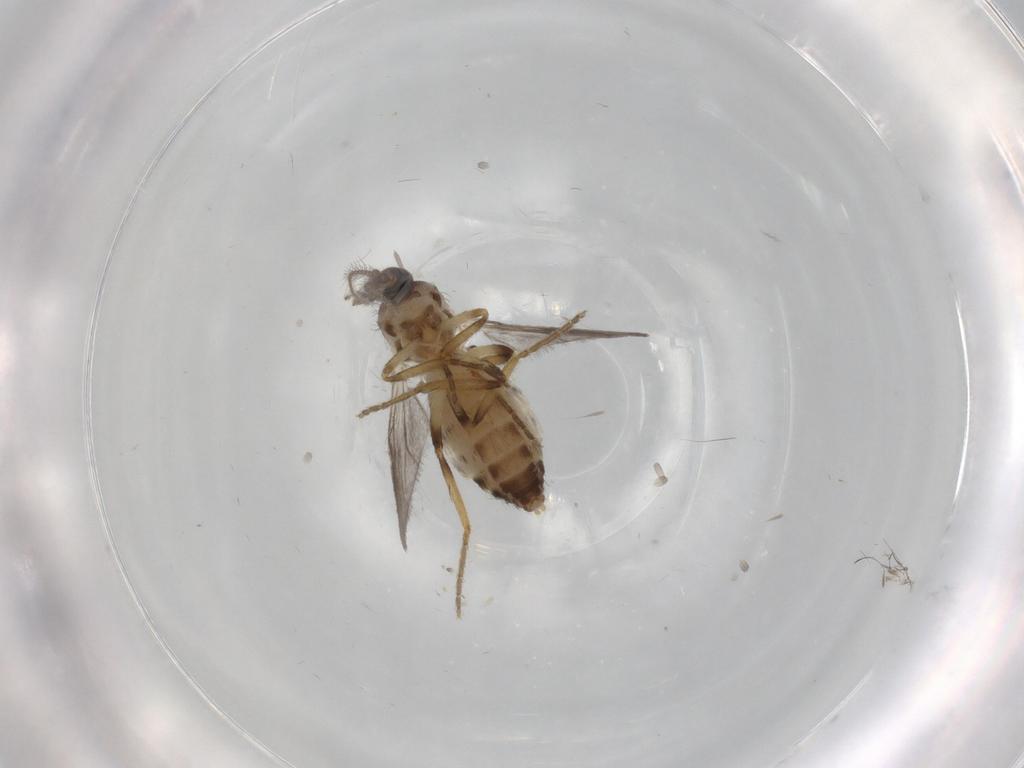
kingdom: Animalia
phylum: Arthropoda
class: Insecta
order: Diptera
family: Ceratopogonidae
